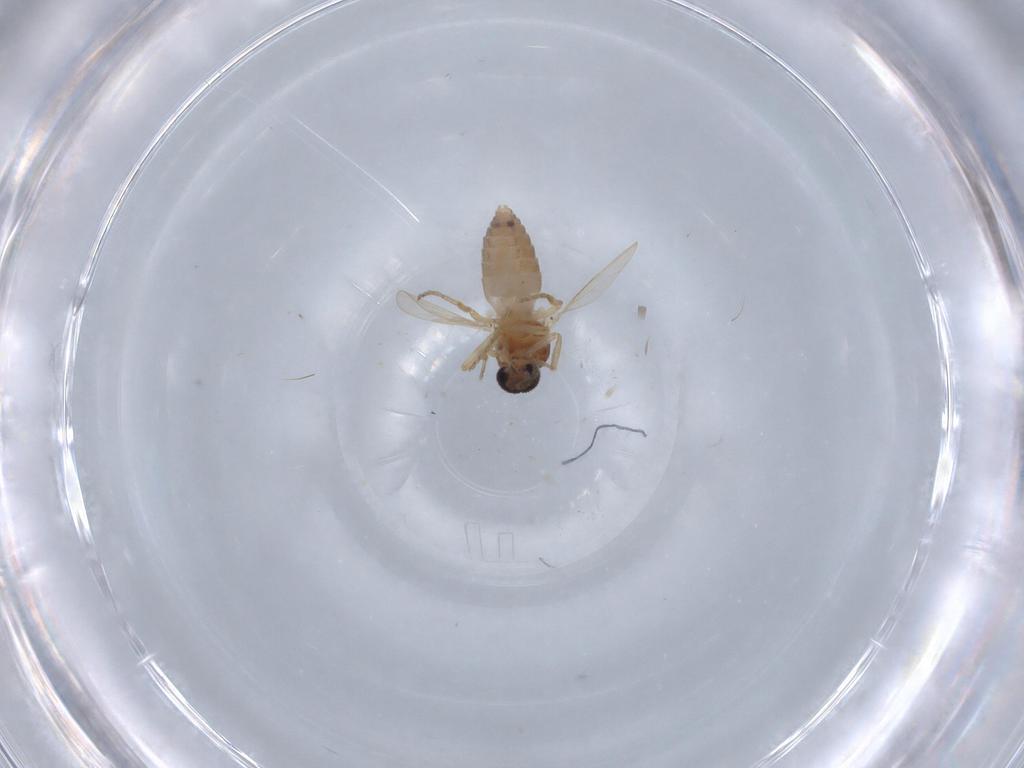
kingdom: Animalia
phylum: Arthropoda
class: Insecta
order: Diptera
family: Ceratopogonidae
